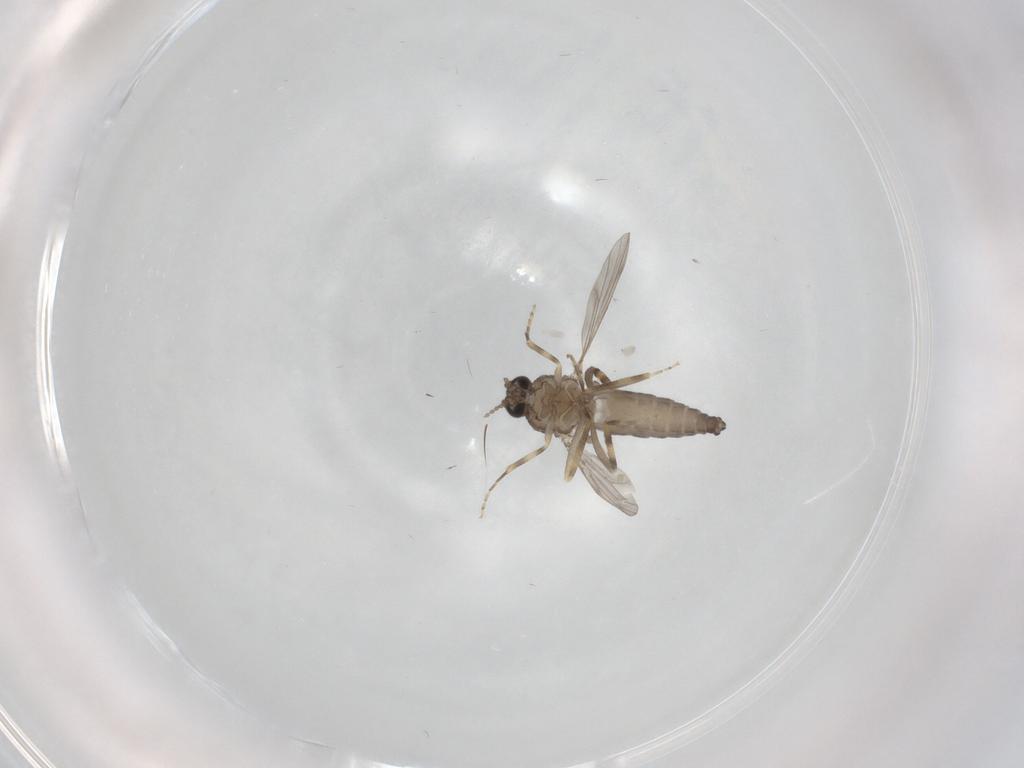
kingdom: Animalia
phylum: Arthropoda
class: Insecta
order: Diptera
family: Ceratopogonidae
